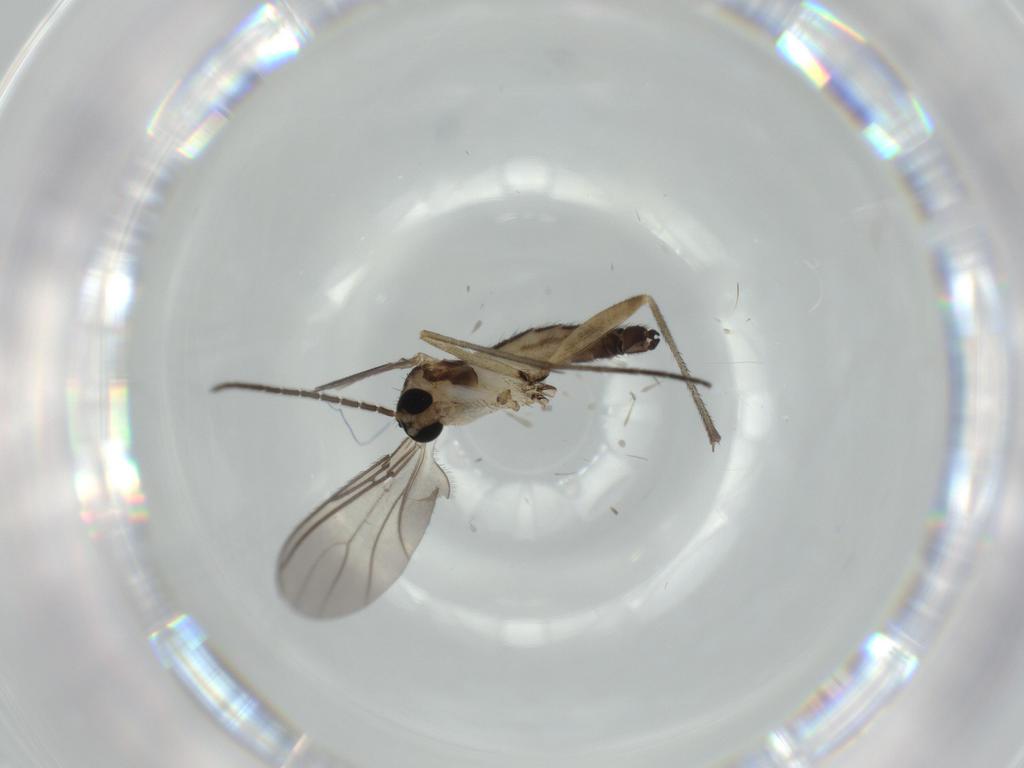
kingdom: Animalia
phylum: Arthropoda
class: Insecta
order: Diptera
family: Sciaridae
